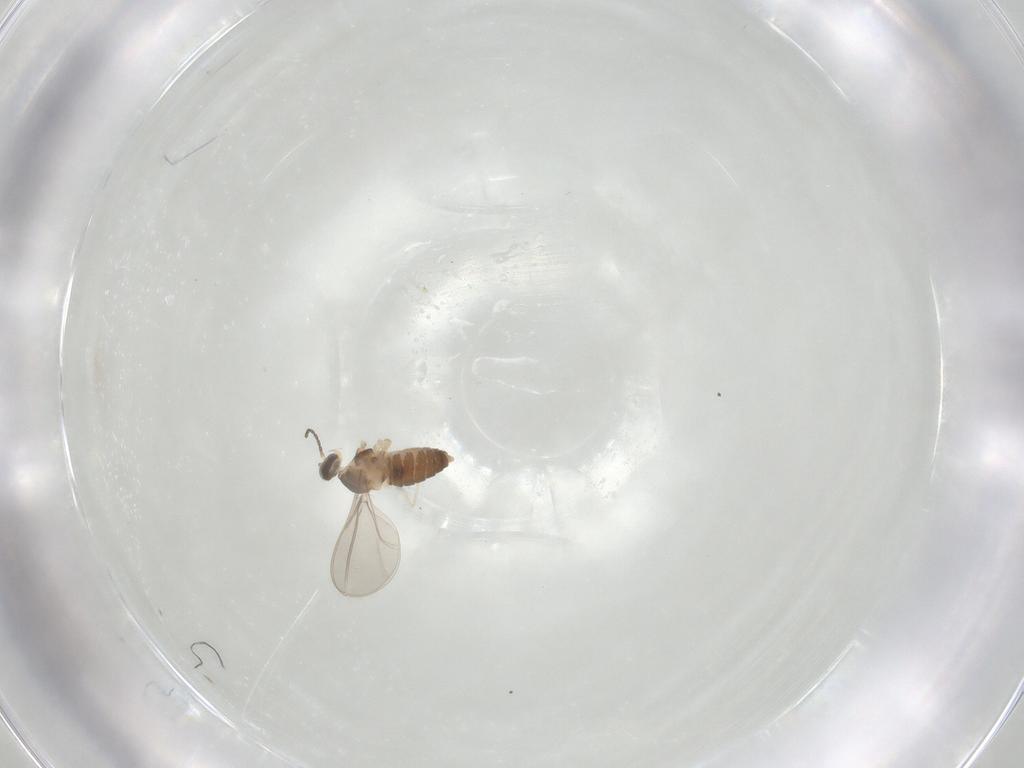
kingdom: Animalia
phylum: Arthropoda
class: Insecta
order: Diptera
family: Cecidomyiidae
